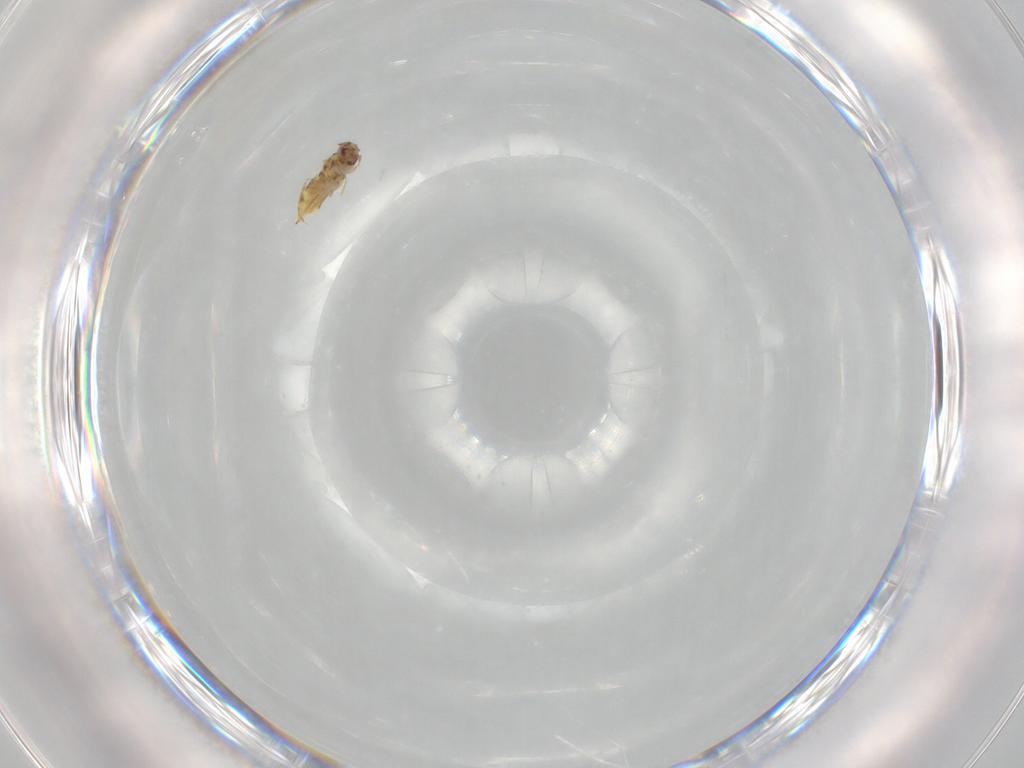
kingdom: Animalia
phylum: Arthropoda
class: Insecta
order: Hymenoptera
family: Trichogrammatidae
